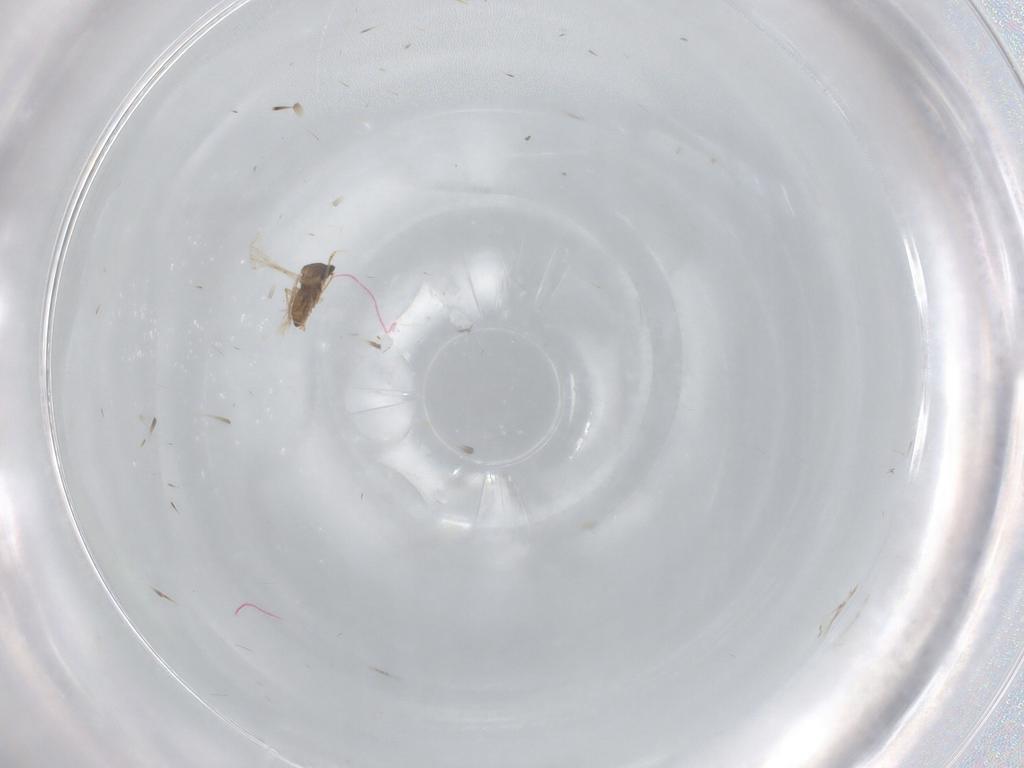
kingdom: Animalia
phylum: Arthropoda
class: Insecta
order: Diptera
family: Cecidomyiidae
